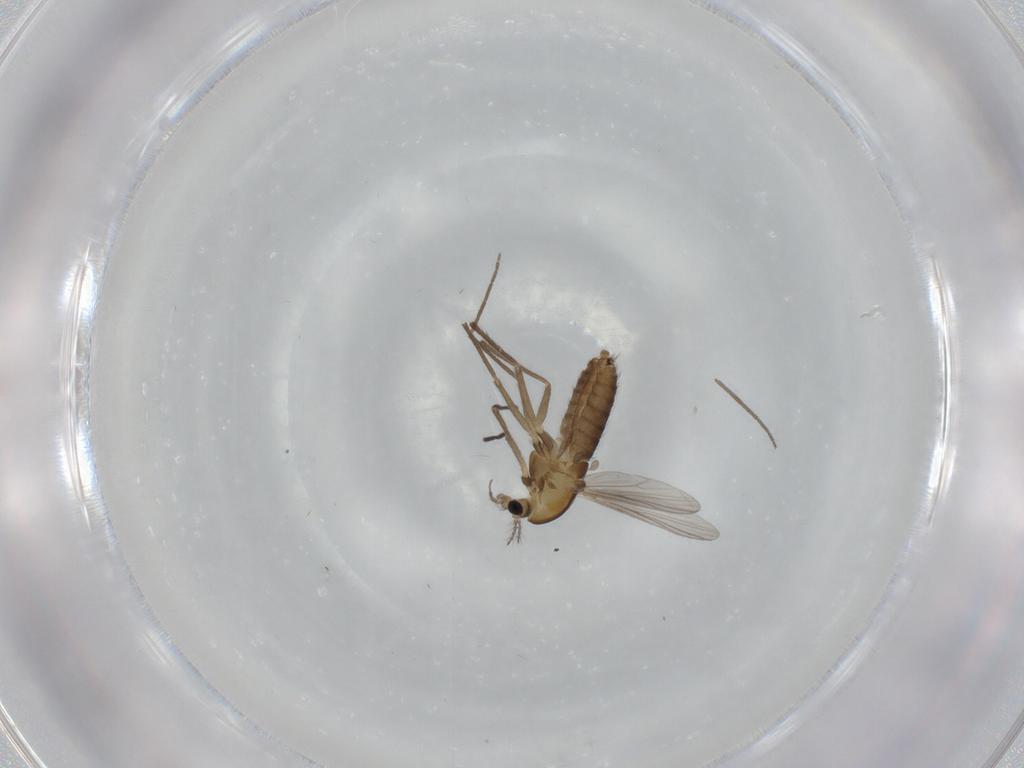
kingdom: Animalia
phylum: Arthropoda
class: Insecta
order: Diptera
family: Chironomidae
